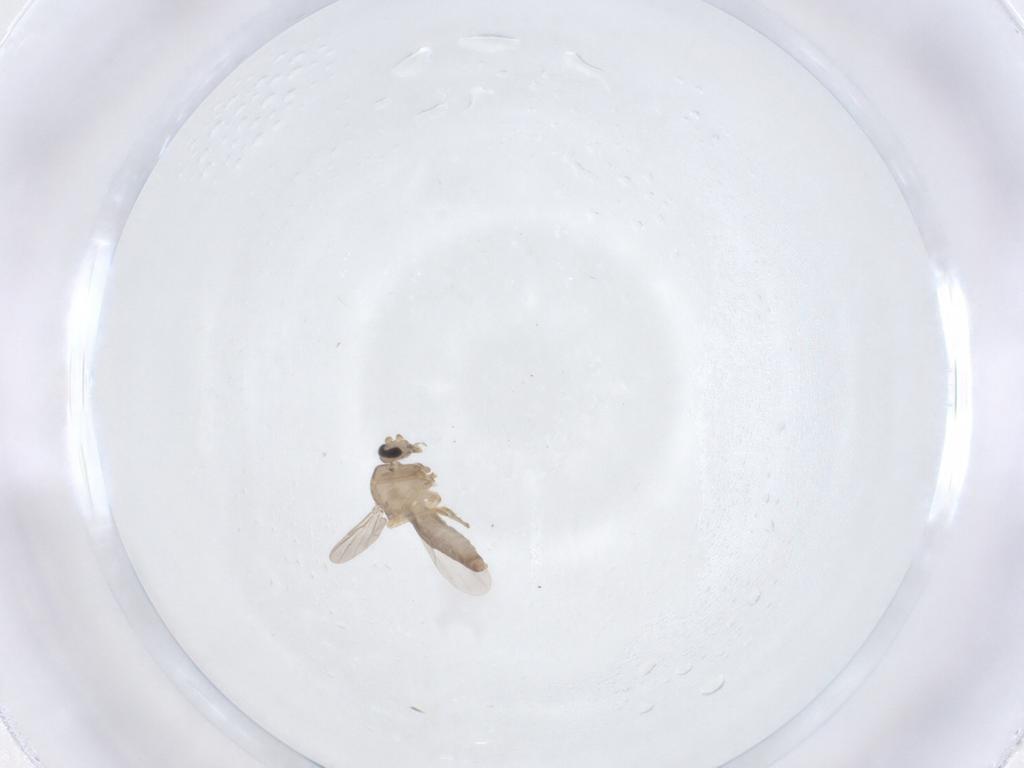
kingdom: Animalia
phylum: Arthropoda
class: Insecta
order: Diptera
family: Ceratopogonidae
